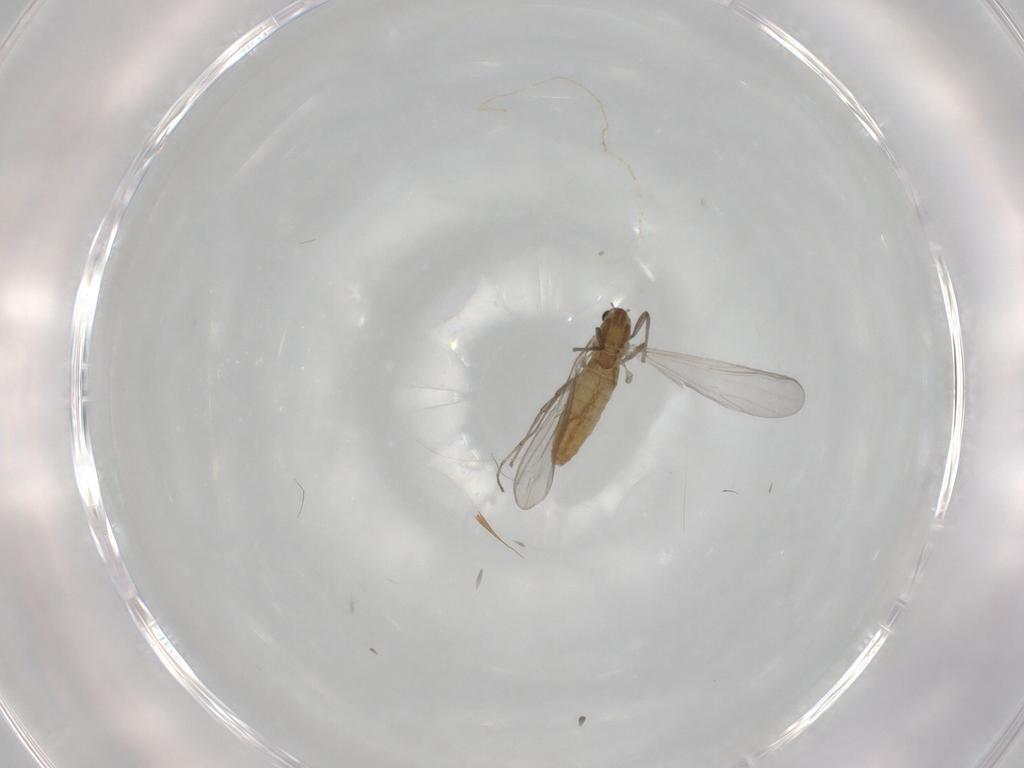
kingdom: Animalia
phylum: Arthropoda
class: Insecta
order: Diptera
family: Chironomidae
